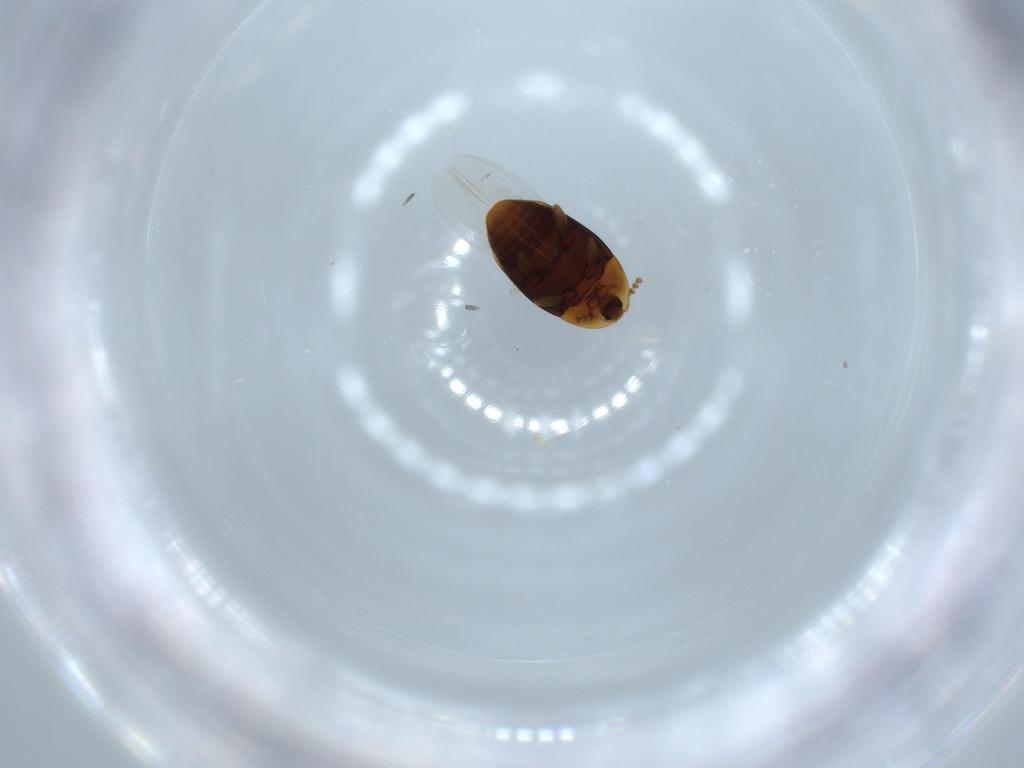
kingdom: Animalia
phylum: Arthropoda
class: Insecta
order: Coleoptera
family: Corylophidae
